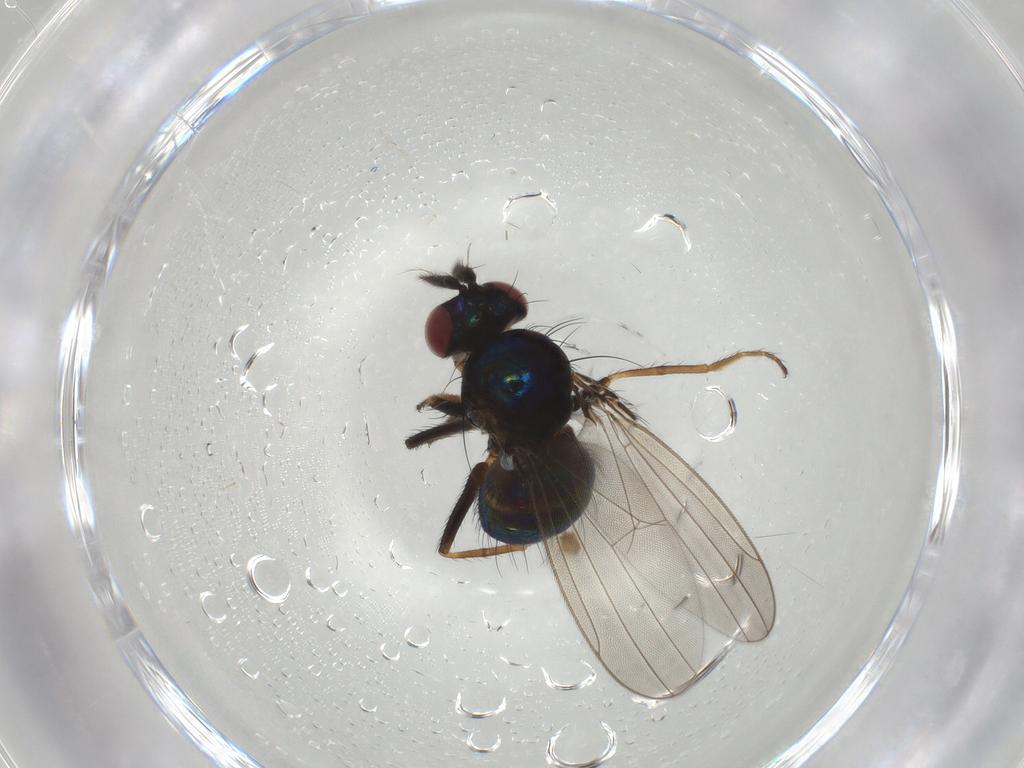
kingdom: Animalia
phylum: Arthropoda
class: Insecta
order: Diptera
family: Ephydridae
